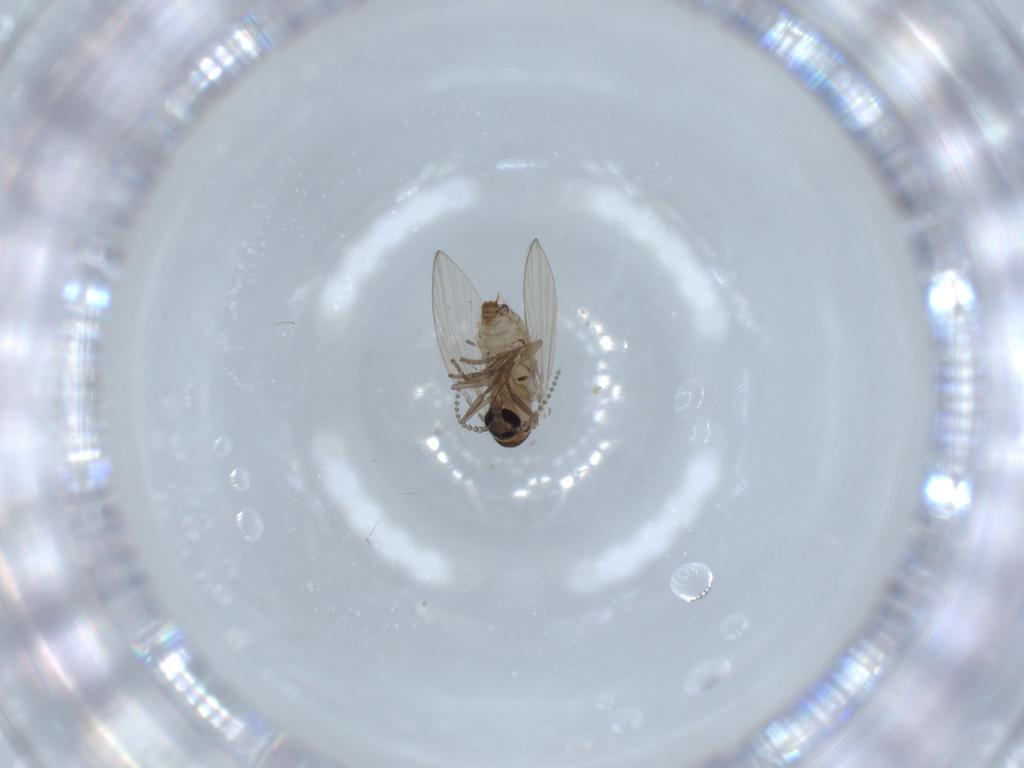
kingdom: Animalia
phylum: Arthropoda
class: Insecta
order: Diptera
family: Psychodidae
